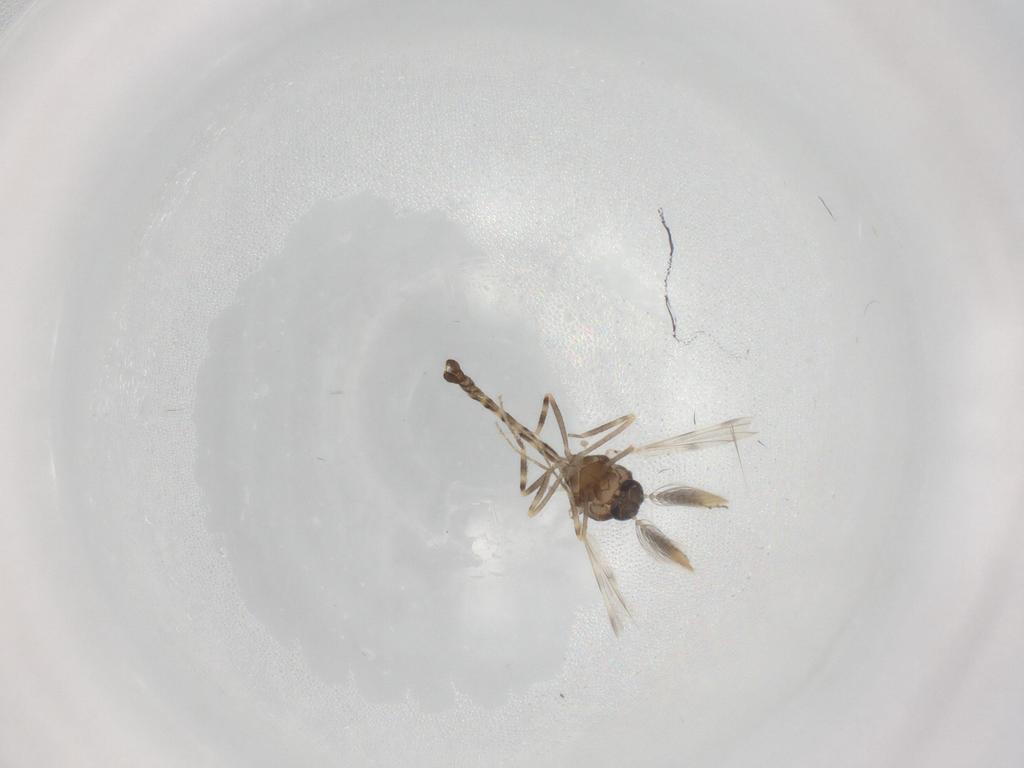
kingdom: Animalia
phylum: Arthropoda
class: Insecta
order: Diptera
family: Ceratopogonidae
